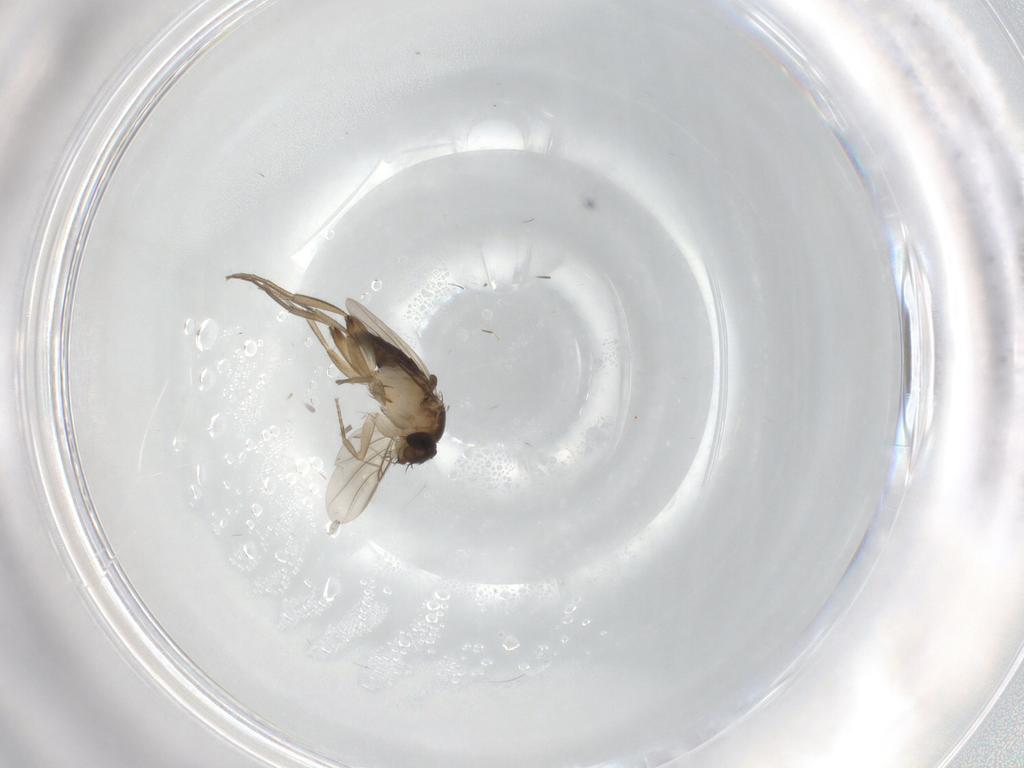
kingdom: Animalia
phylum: Arthropoda
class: Insecta
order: Diptera
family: Phoridae
